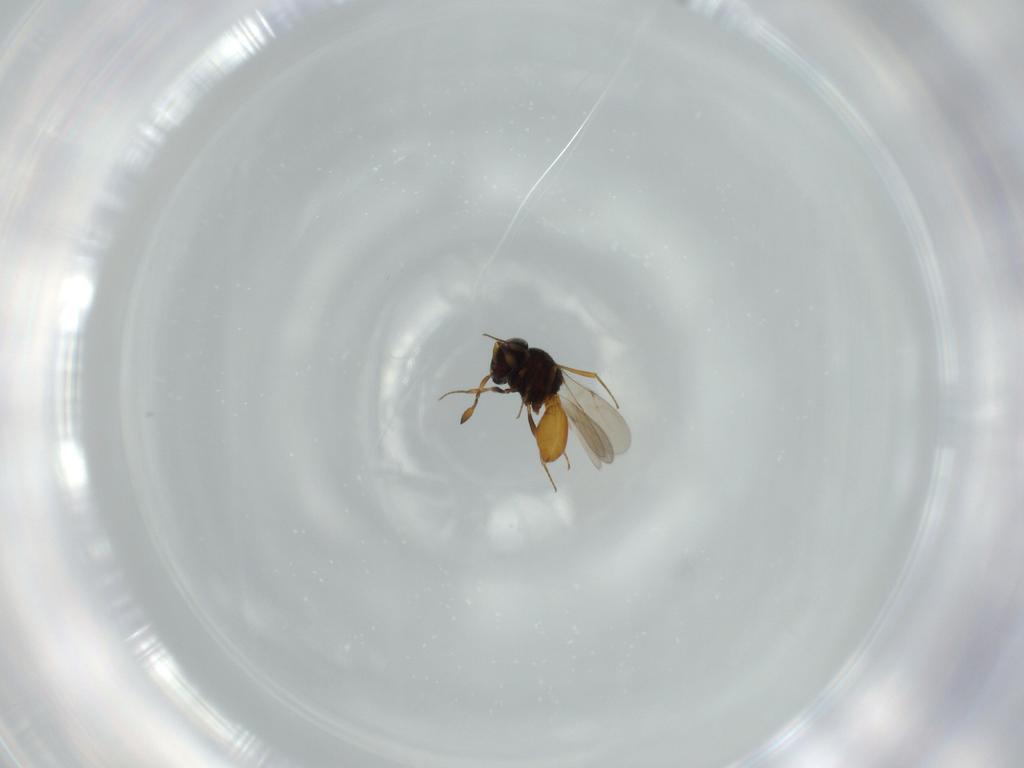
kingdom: Animalia
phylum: Arthropoda
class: Insecta
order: Hymenoptera
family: Scelionidae
